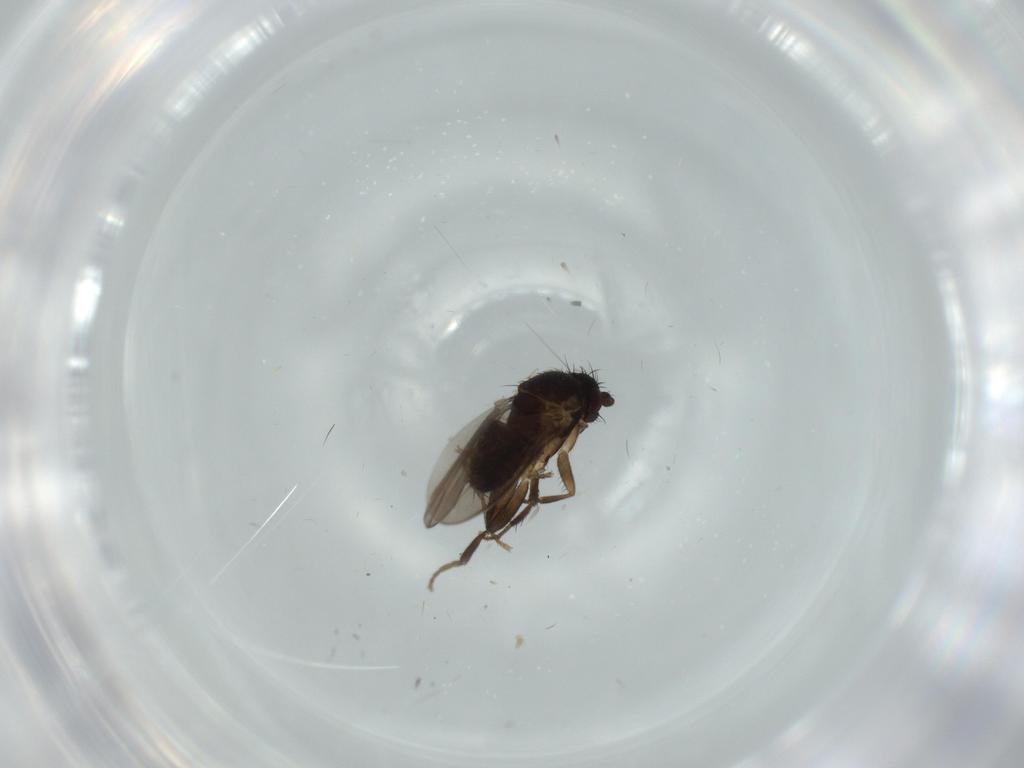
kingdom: Animalia
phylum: Arthropoda
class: Insecta
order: Diptera
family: Sphaeroceridae
